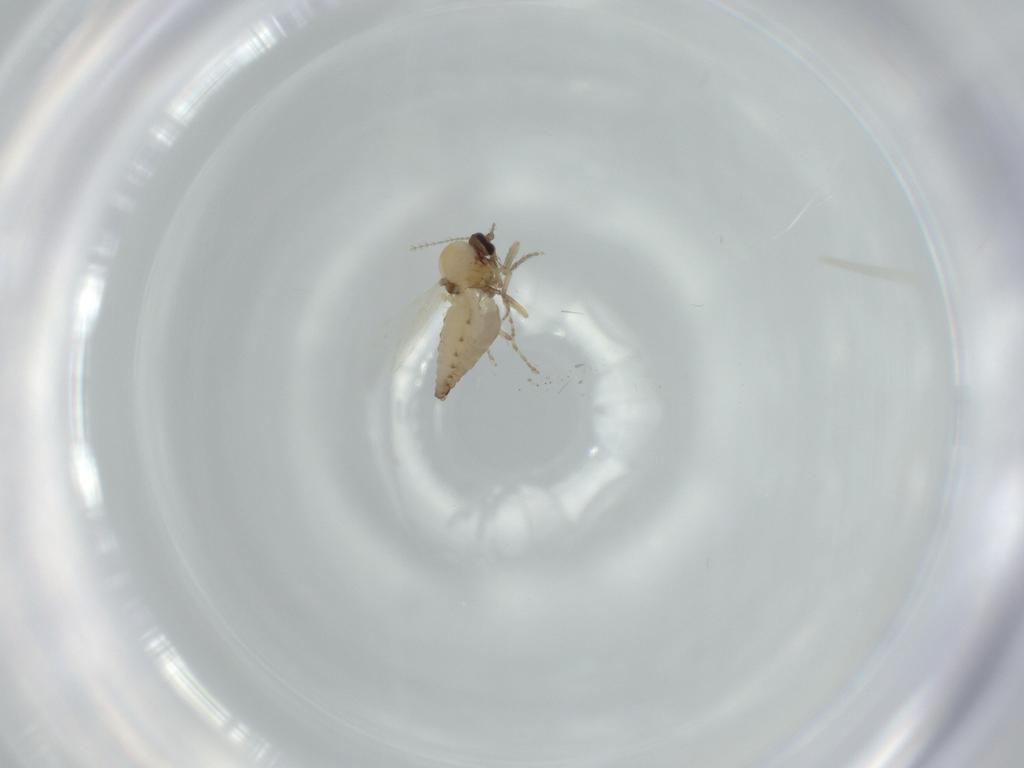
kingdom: Animalia
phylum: Arthropoda
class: Insecta
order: Diptera
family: Ceratopogonidae
